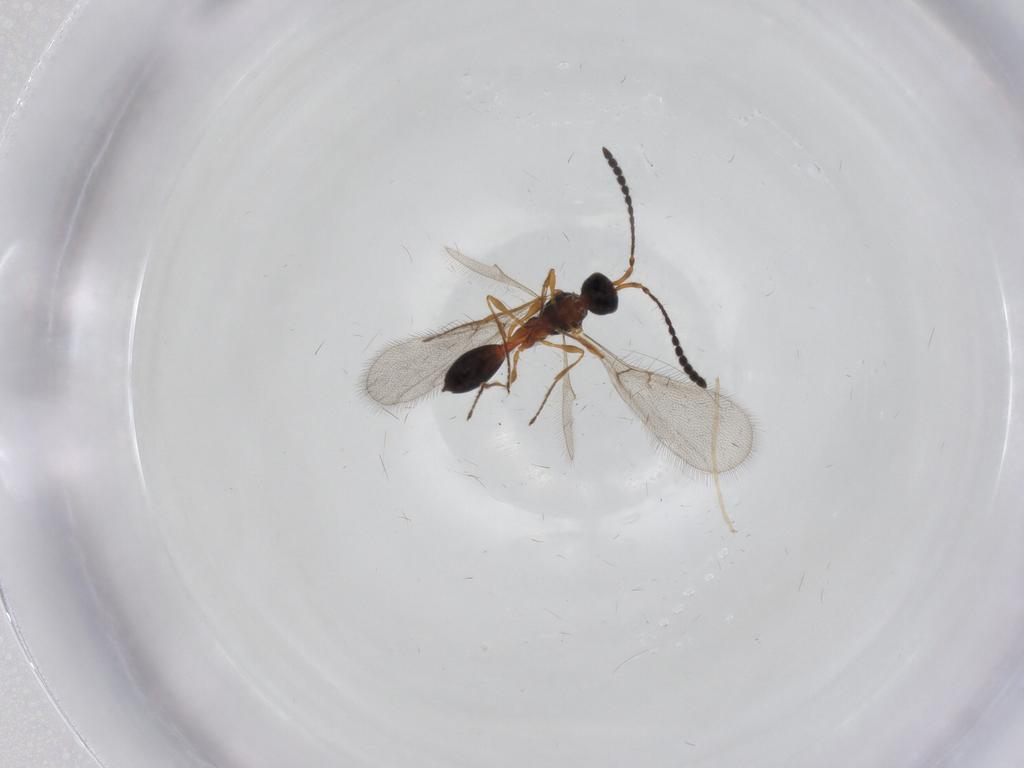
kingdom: Animalia
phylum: Arthropoda
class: Insecta
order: Hymenoptera
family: Diapriidae
